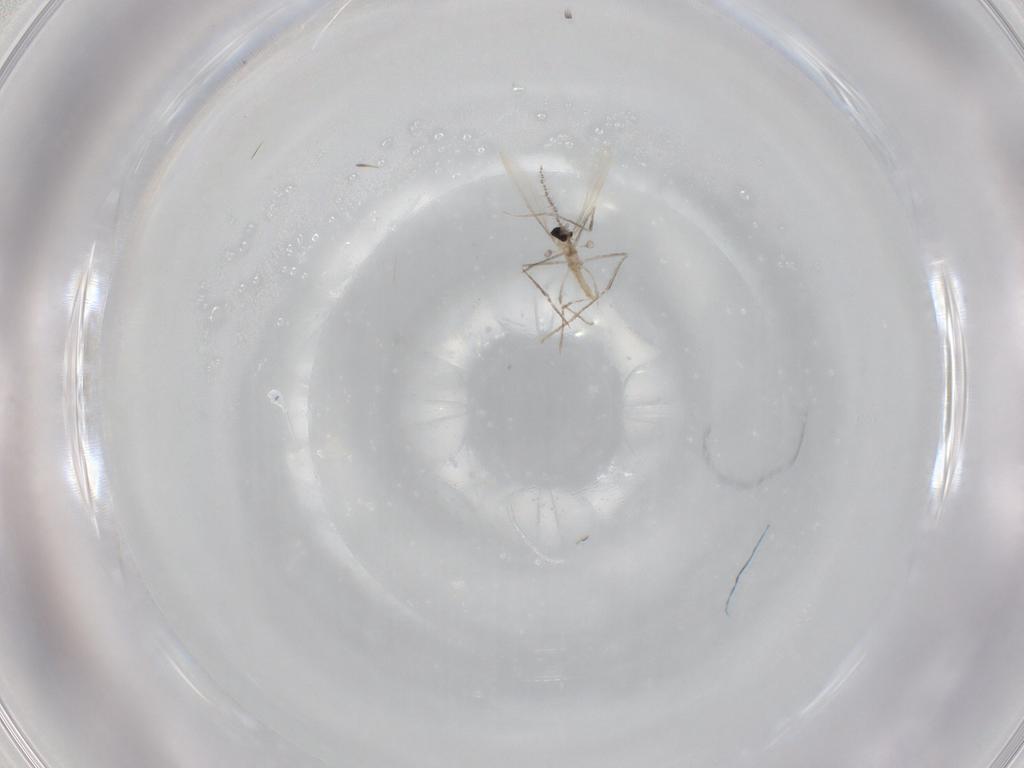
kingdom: Animalia
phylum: Arthropoda
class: Insecta
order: Diptera
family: Cecidomyiidae
